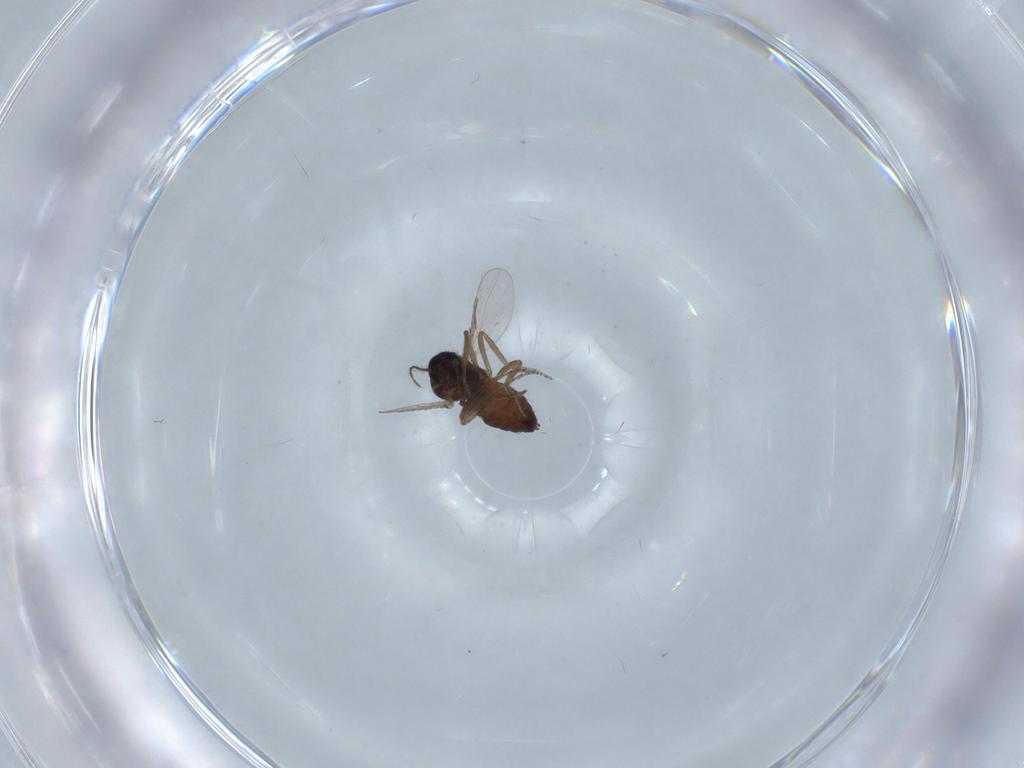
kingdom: Animalia
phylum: Arthropoda
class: Insecta
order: Diptera
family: Ceratopogonidae
